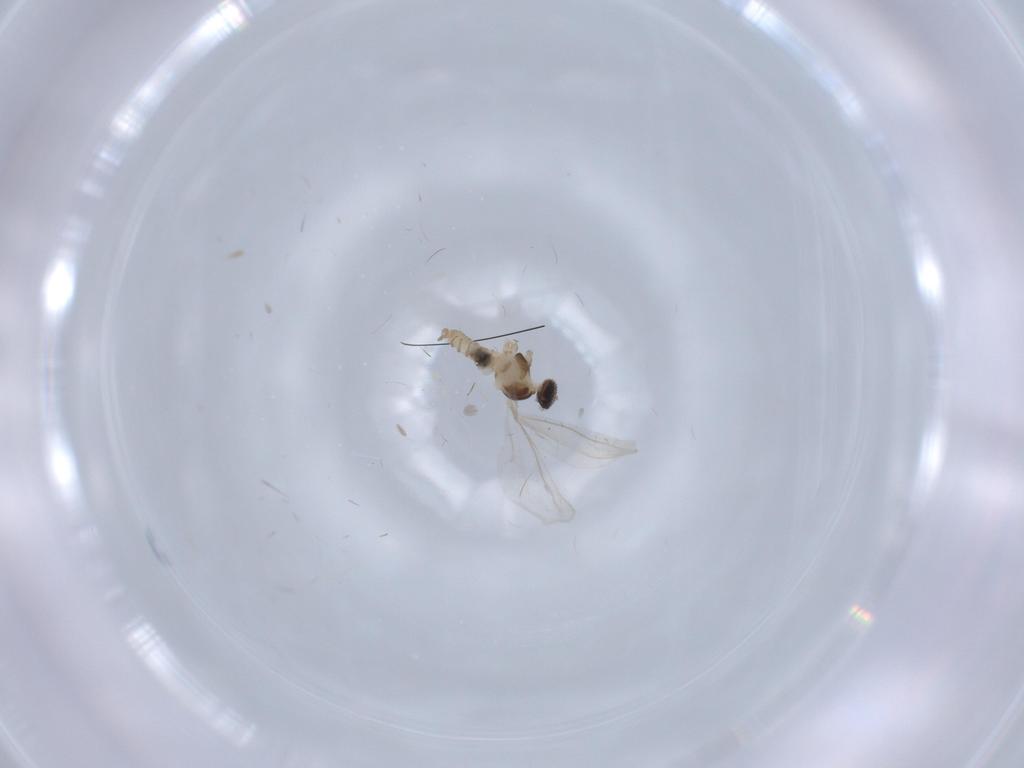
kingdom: Animalia
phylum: Arthropoda
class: Insecta
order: Diptera
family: Cecidomyiidae
